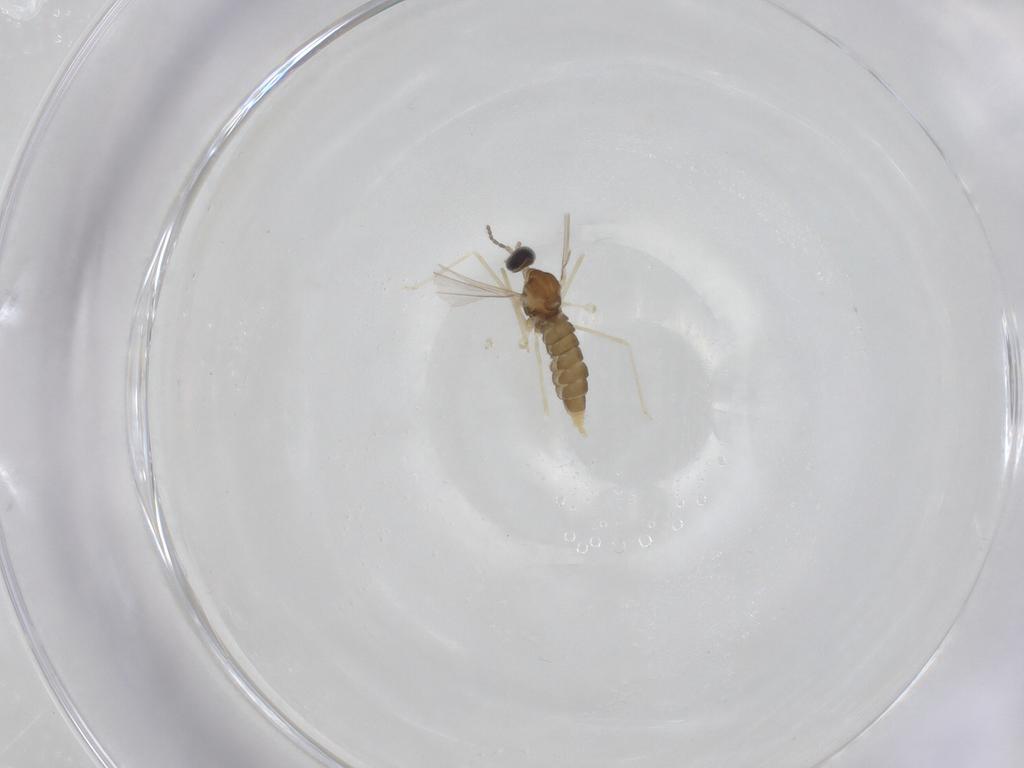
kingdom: Animalia
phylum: Arthropoda
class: Insecta
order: Diptera
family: Cecidomyiidae
